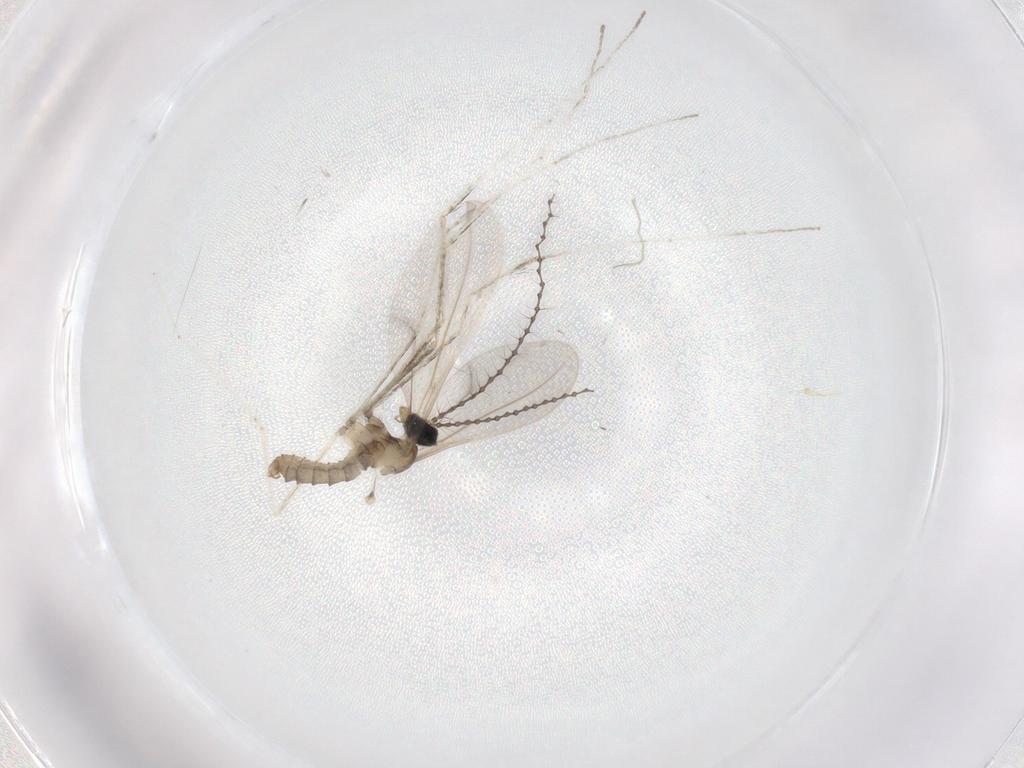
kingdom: Animalia
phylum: Arthropoda
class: Insecta
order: Diptera
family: Cecidomyiidae
